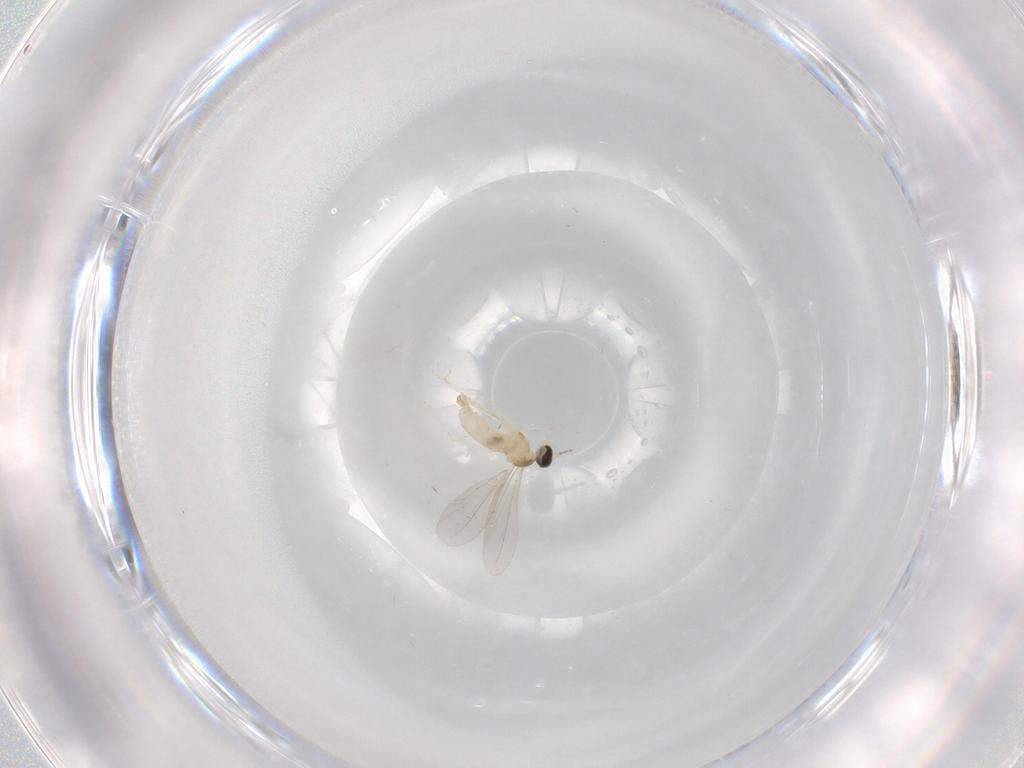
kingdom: Animalia
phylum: Arthropoda
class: Insecta
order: Diptera
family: Cecidomyiidae
